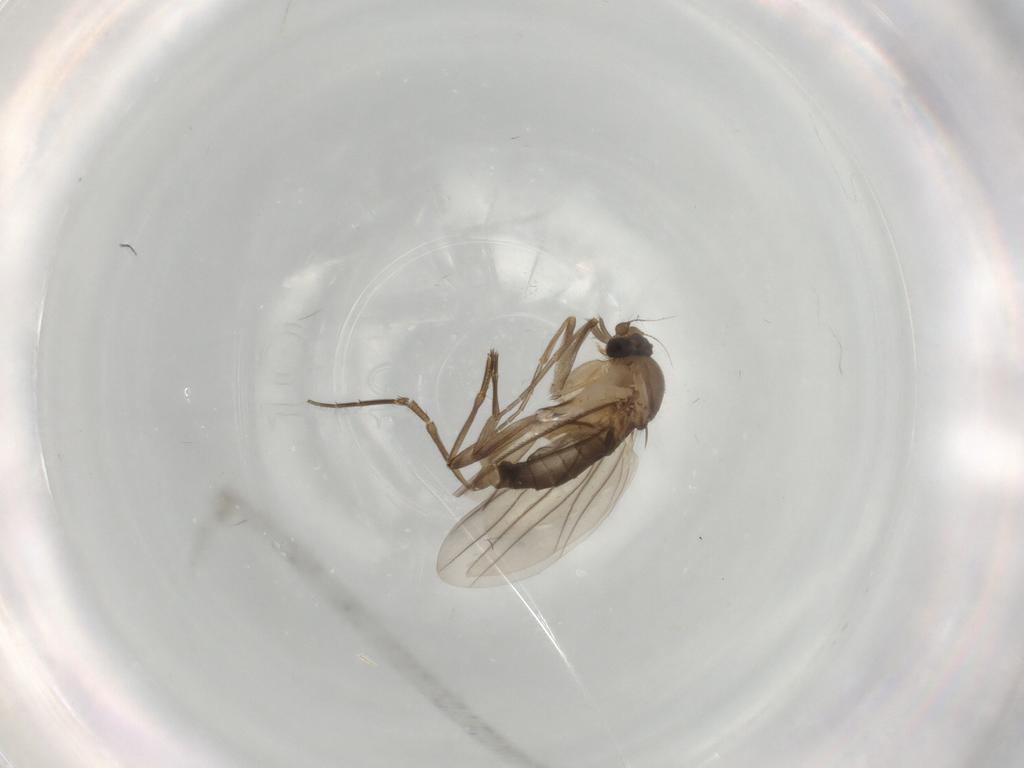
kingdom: Animalia
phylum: Arthropoda
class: Insecta
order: Diptera
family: Phoridae
